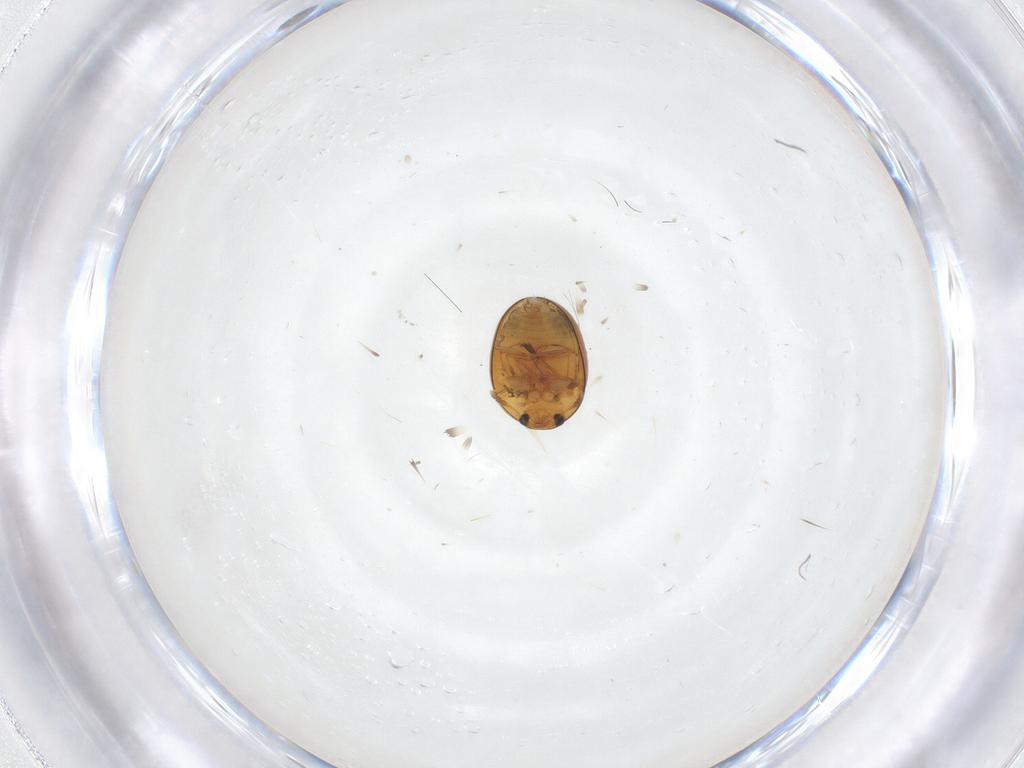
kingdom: Animalia
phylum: Arthropoda
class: Insecta
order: Coleoptera
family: Phalacridae
